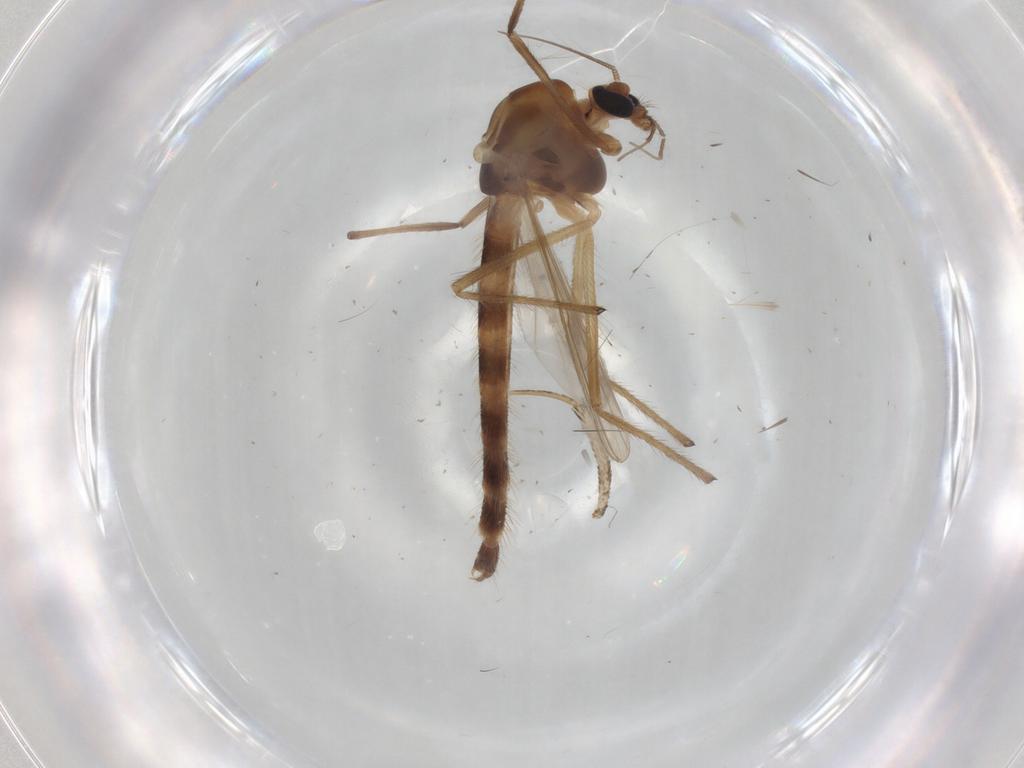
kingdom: Animalia
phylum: Arthropoda
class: Insecta
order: Diptera
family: Chironomidae
